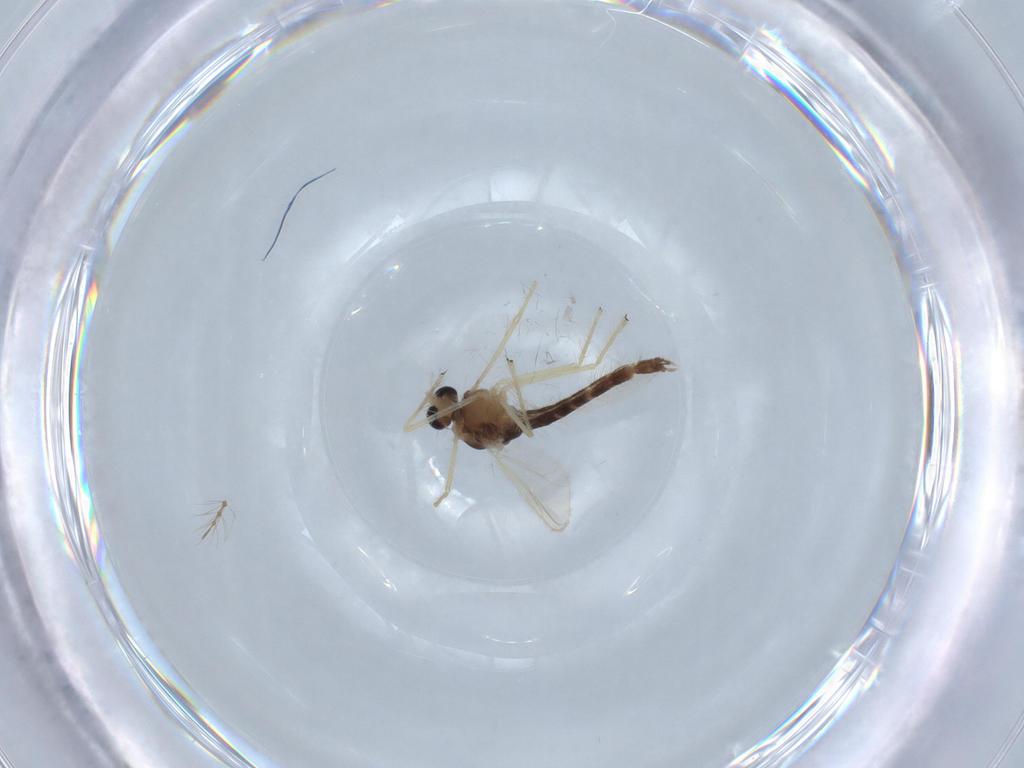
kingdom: Animalia
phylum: Arthropoda
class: Insecta
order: Diptera
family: Chironomidae
